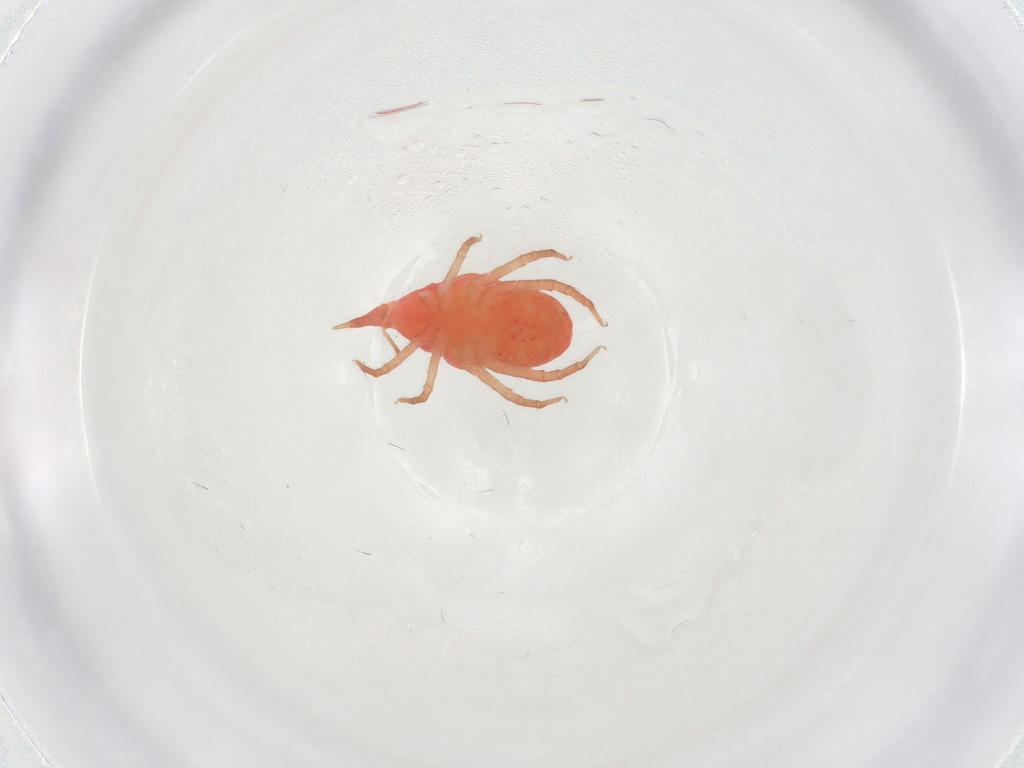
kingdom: Animalia
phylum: Arthropoda
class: Arachnida
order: Trombidiformes
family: Bdellidae
